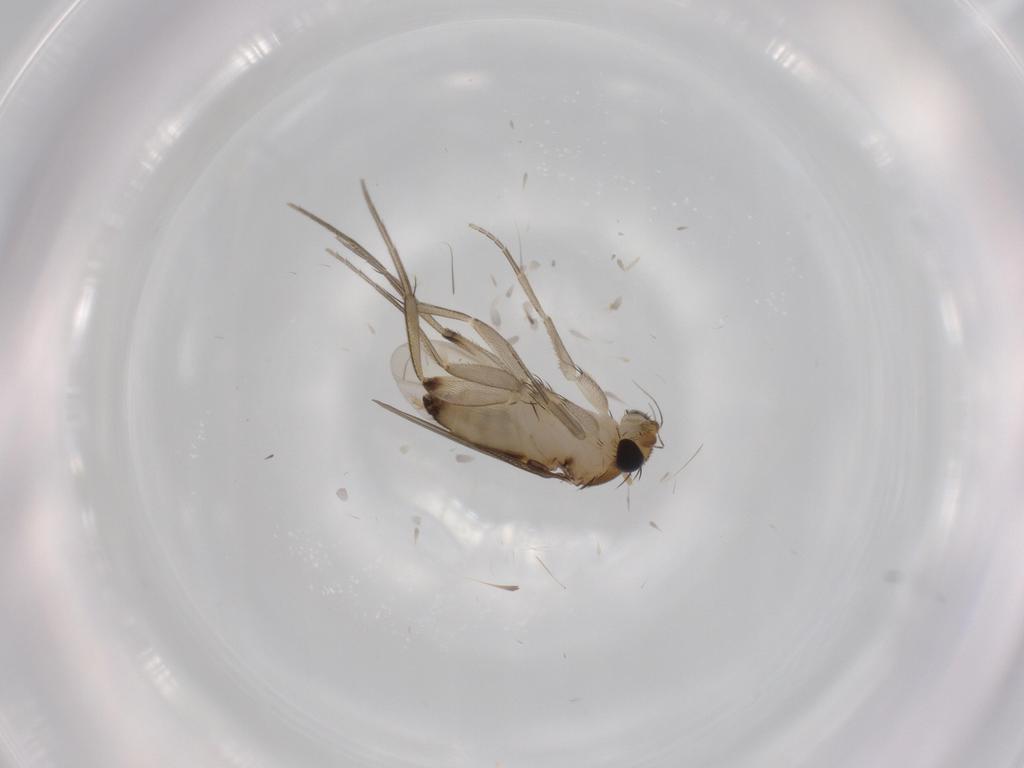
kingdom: Animalia
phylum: Arthropoda
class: Insecta
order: Diptera
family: Phoridae
